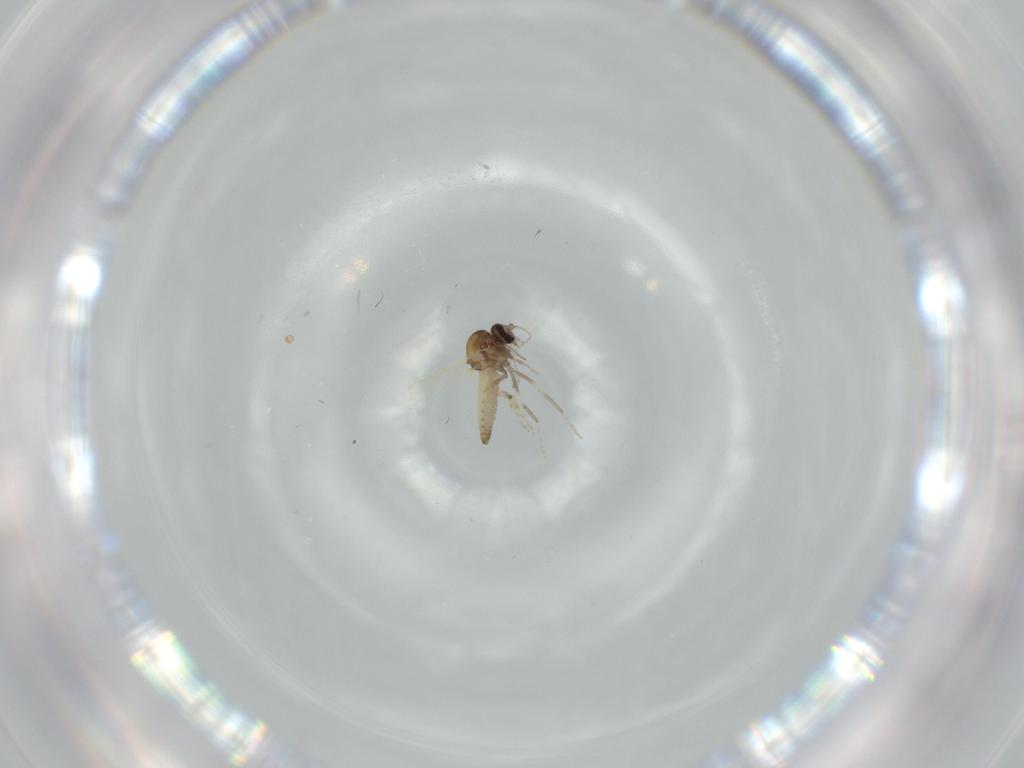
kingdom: Animalia
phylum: Arthropoda
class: Insecta
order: Diptera
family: Ceratopogonidae
